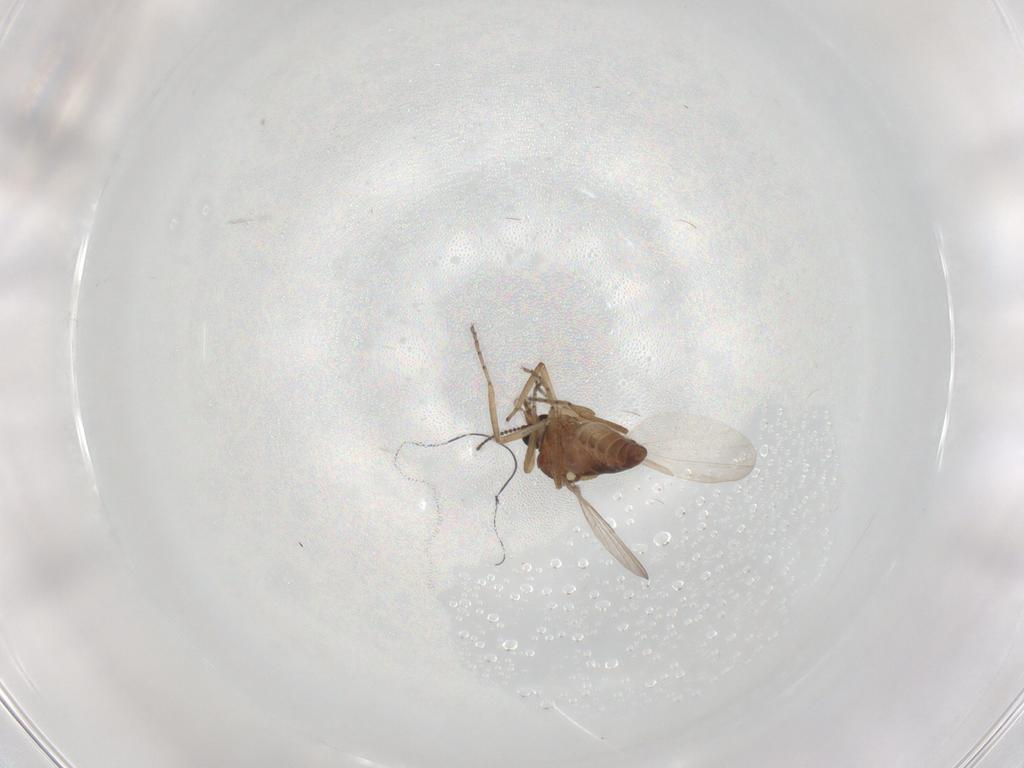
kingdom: Animalia
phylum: Arthropoda
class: Insecta
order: Diptera
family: Ceratopogonidae
